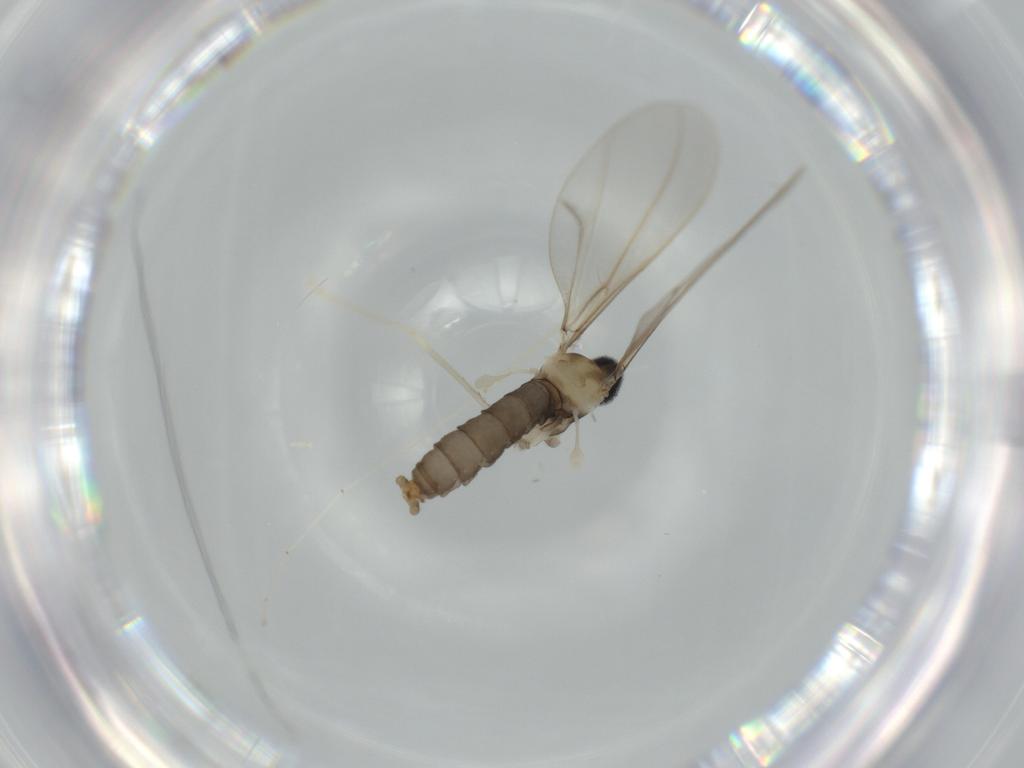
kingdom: Animalia
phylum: Arthropoda
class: Insecta
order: Diptera
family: Cecidomyiidae
